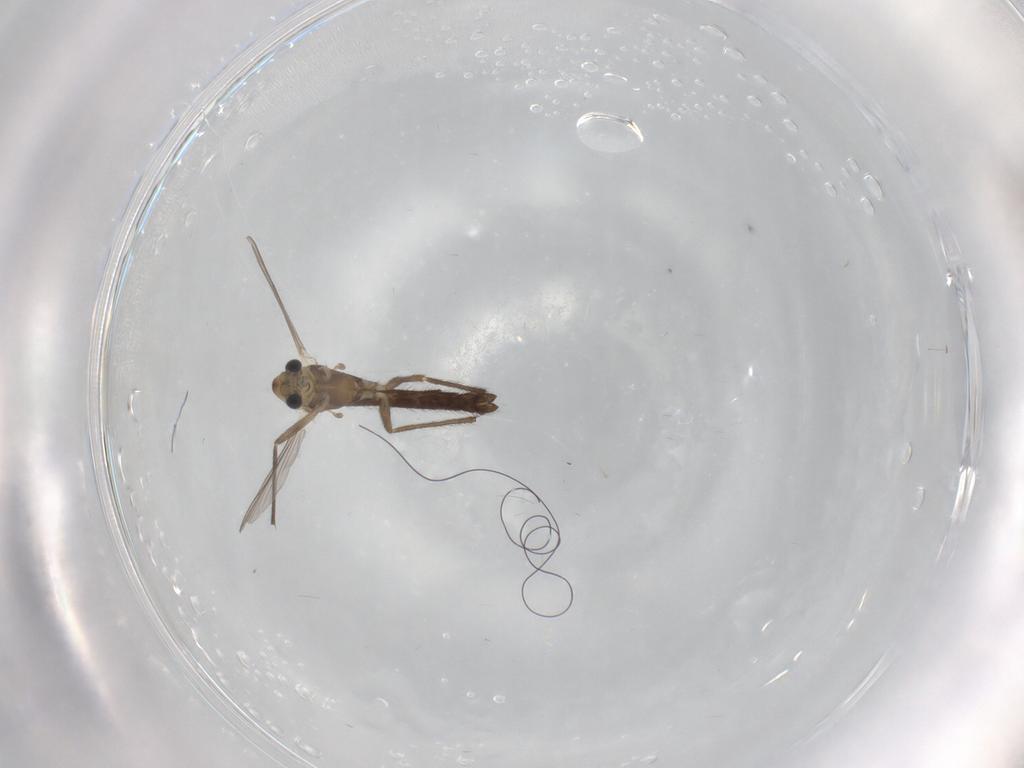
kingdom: Animalia
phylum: Arthropoda
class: Insecta
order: Diptera
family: Chironomidae
